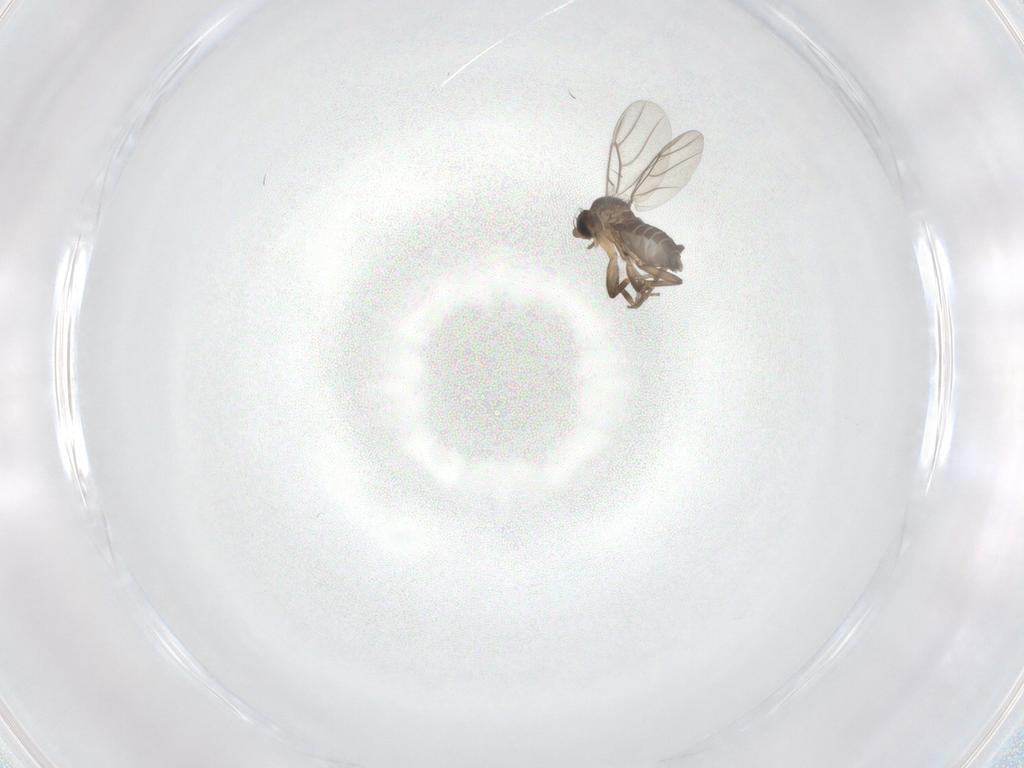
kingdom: Animalia
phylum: Arthropoda
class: Insecta
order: Diptera
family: Phoridae
